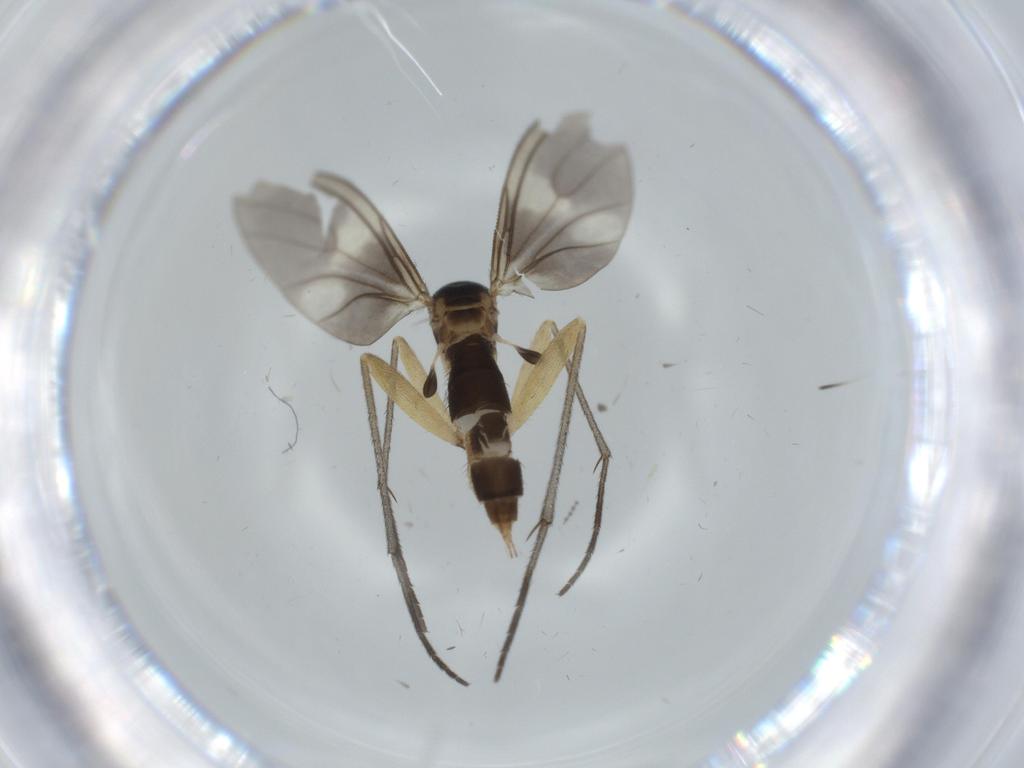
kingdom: Animalia
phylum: Arthropoda
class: Insecta
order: Diptera
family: Sciaridae
